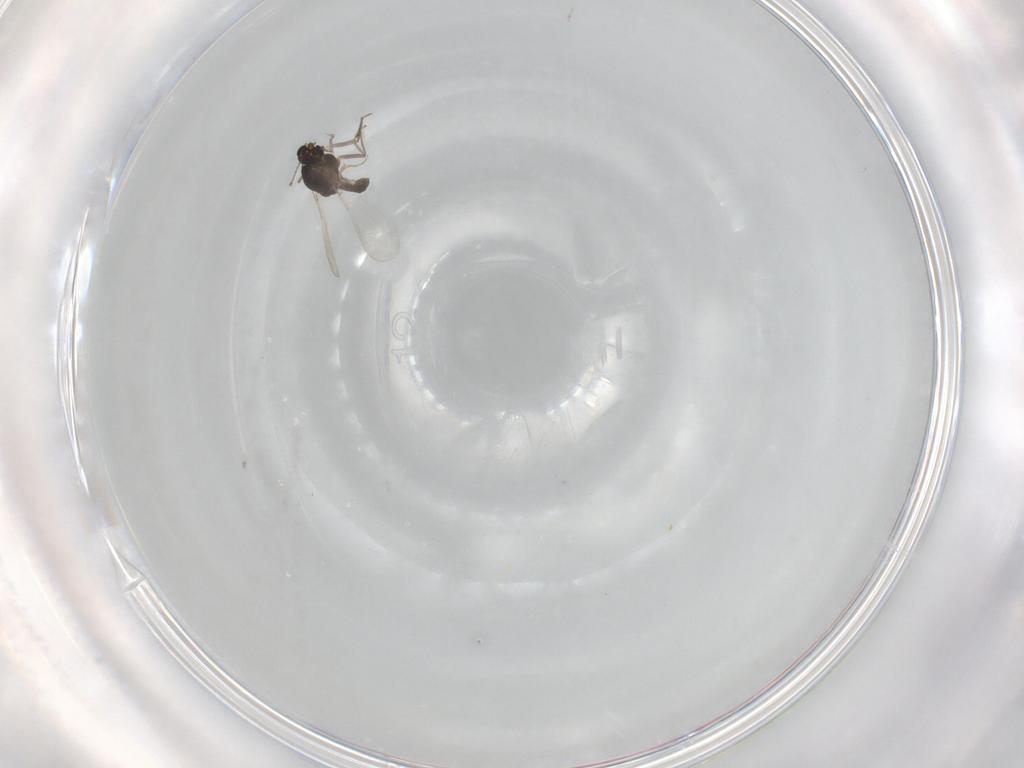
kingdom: Animalia
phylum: Arthropoda
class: Insecta
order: Diptera
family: Chironomidae
